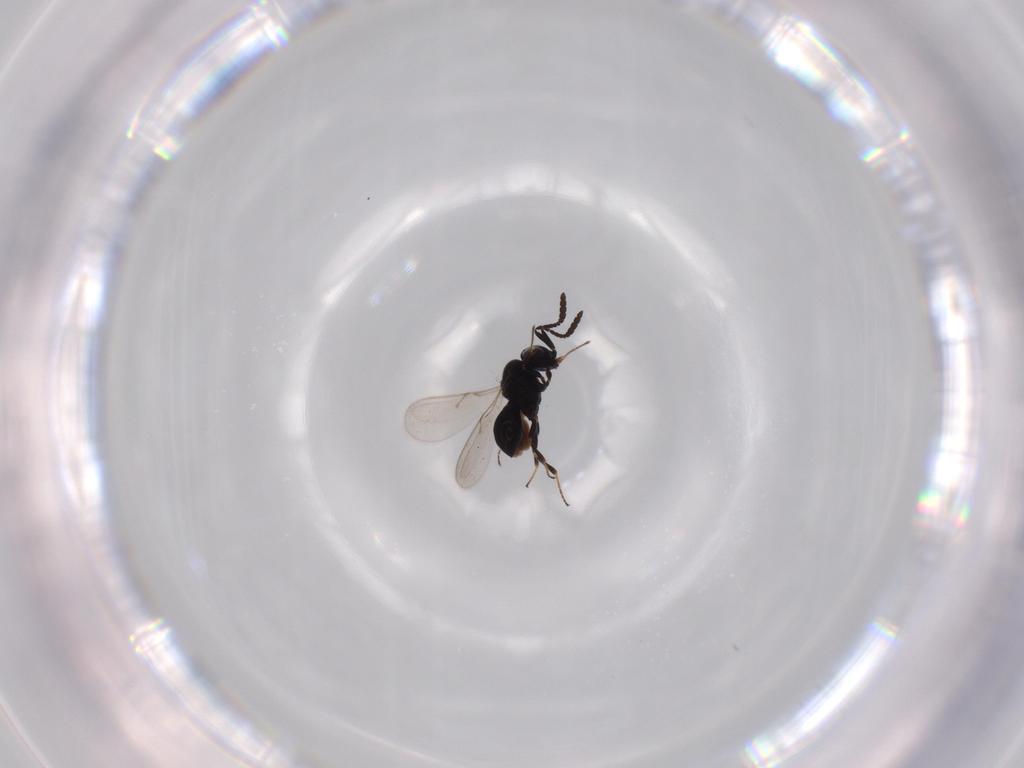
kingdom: Animalia
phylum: Arthropoda
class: Insecta
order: Hymenoptera
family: Scelionidae
